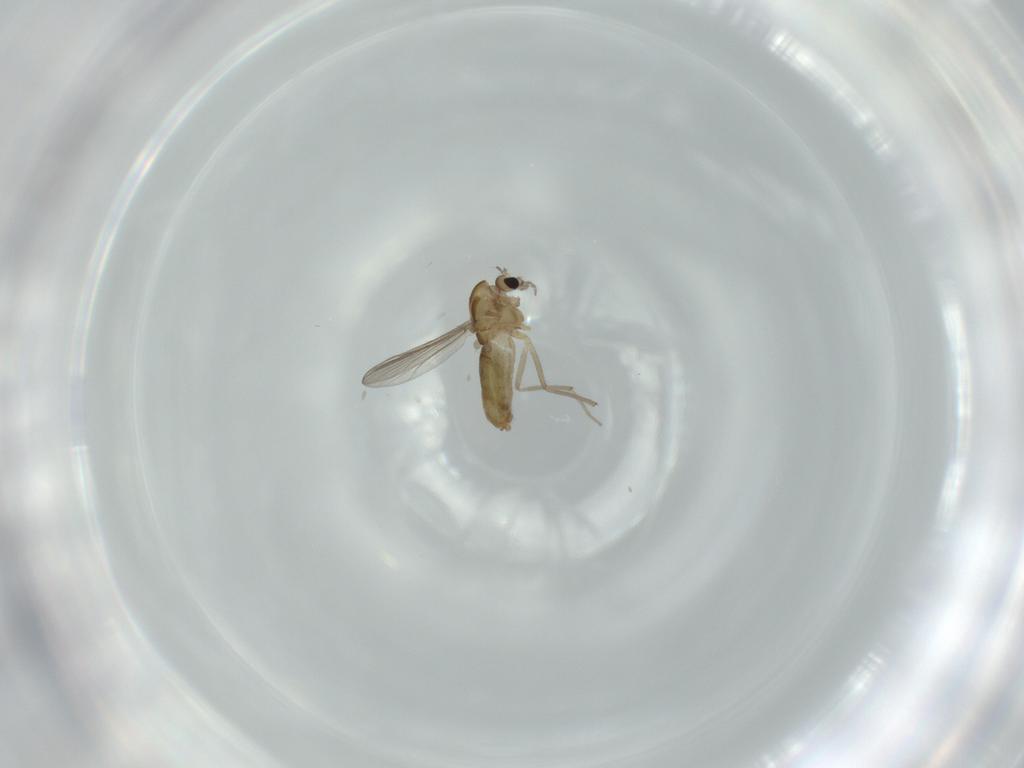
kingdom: Animalia
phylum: Arthropoda
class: Insecta
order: Diptera
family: Chironomidae
